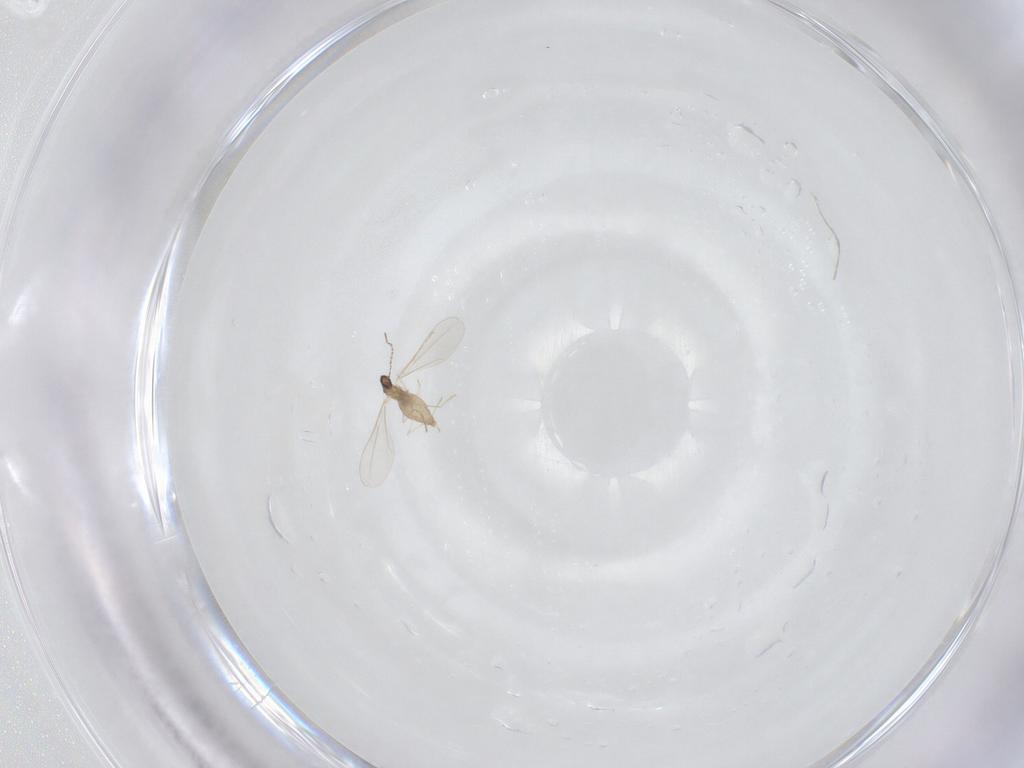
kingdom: Animalia
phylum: Arthropoda
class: Insecta
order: Diptera
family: Cecidomyiidae
